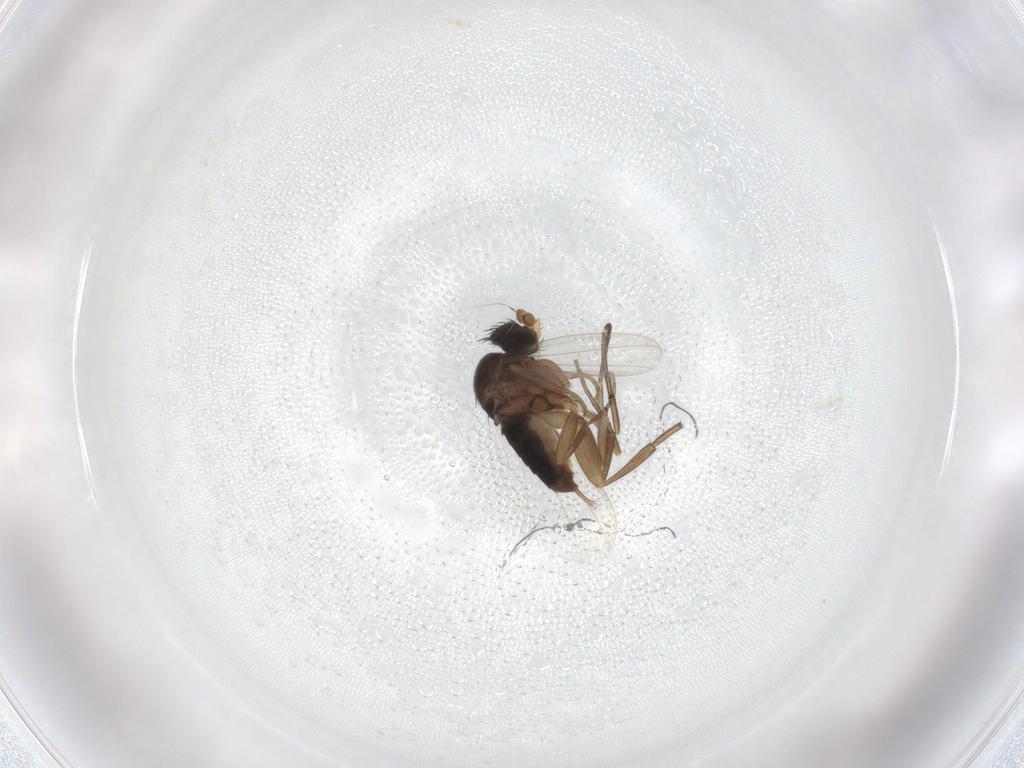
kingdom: Animalia
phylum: Arthropoda
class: Insecta
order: Diptera
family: Phoridae
